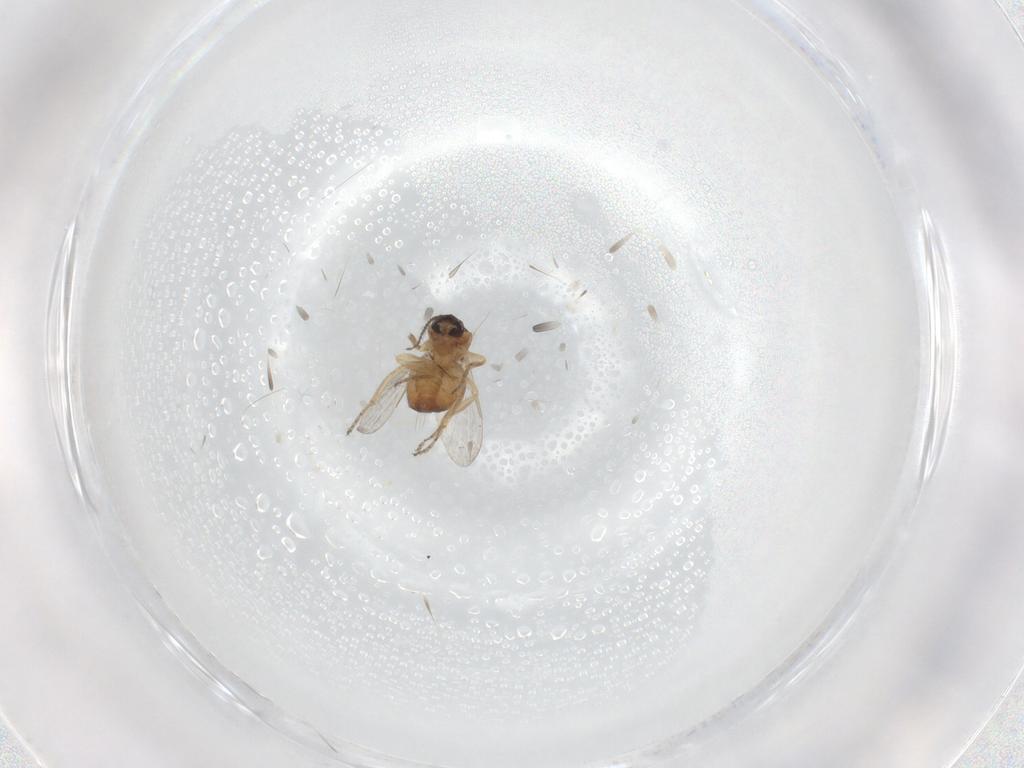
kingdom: Animalia
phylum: Arthropoda
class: Insecta
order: Diptera
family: Ceratopogonidae
